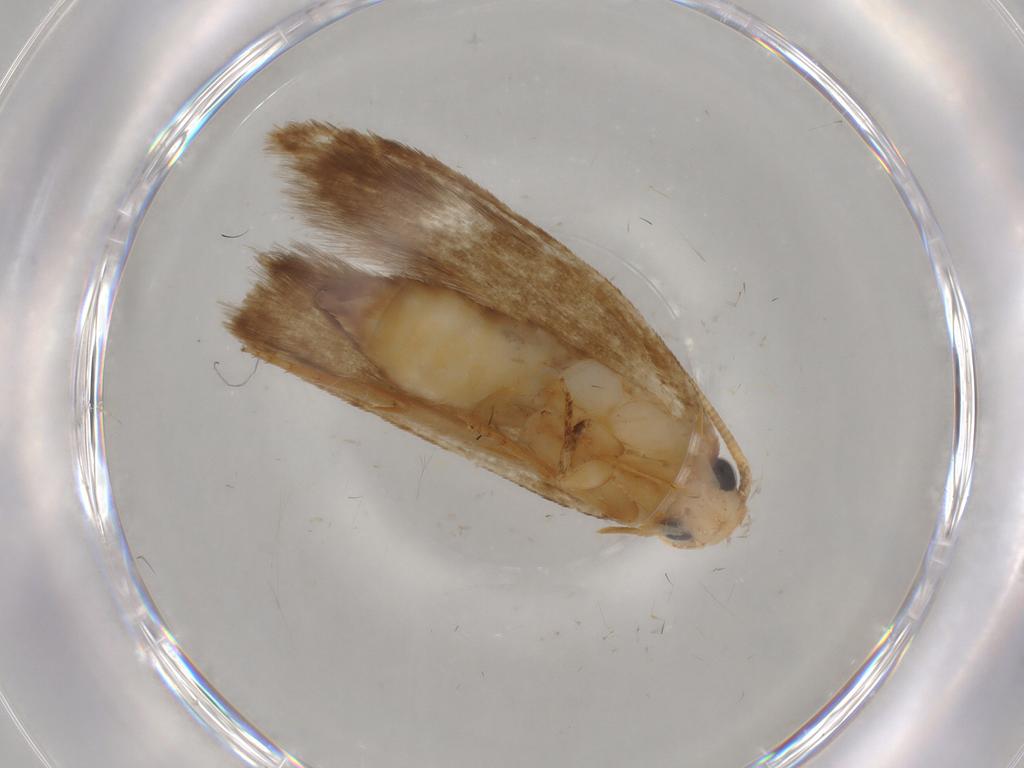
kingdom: Animalia
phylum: Arthropoda
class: Insecta
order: Lepidoptera
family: Tineidae
